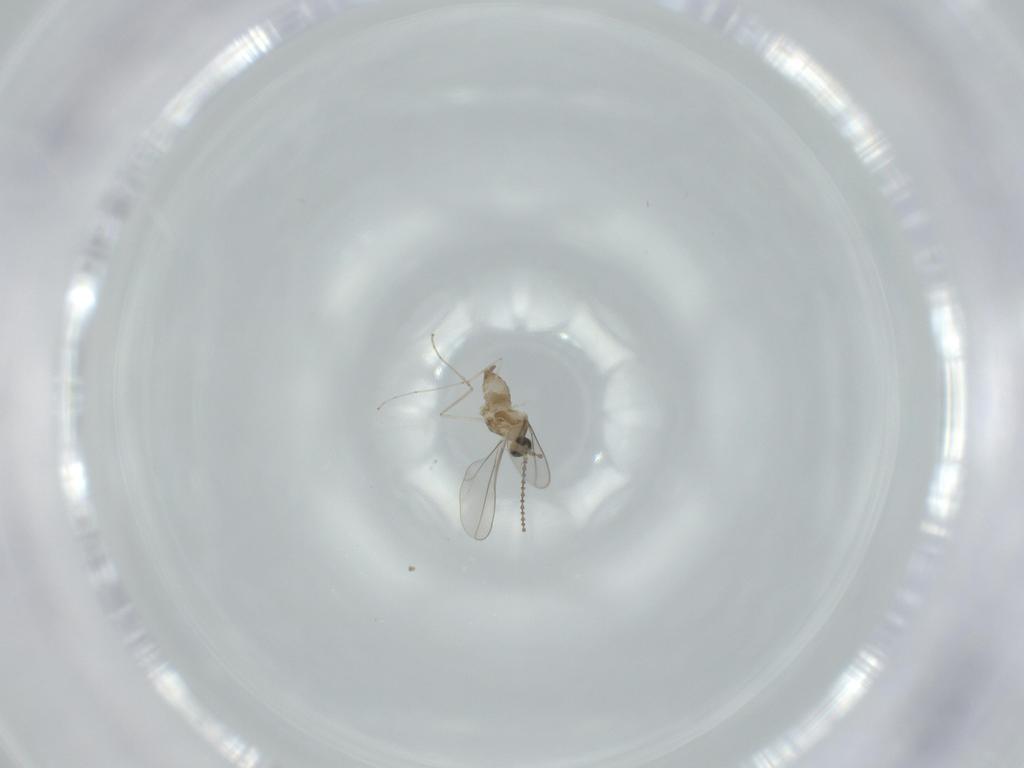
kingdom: Animalia
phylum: Arthropoda
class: Insecta
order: Diptera
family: Cecidomyiidae
